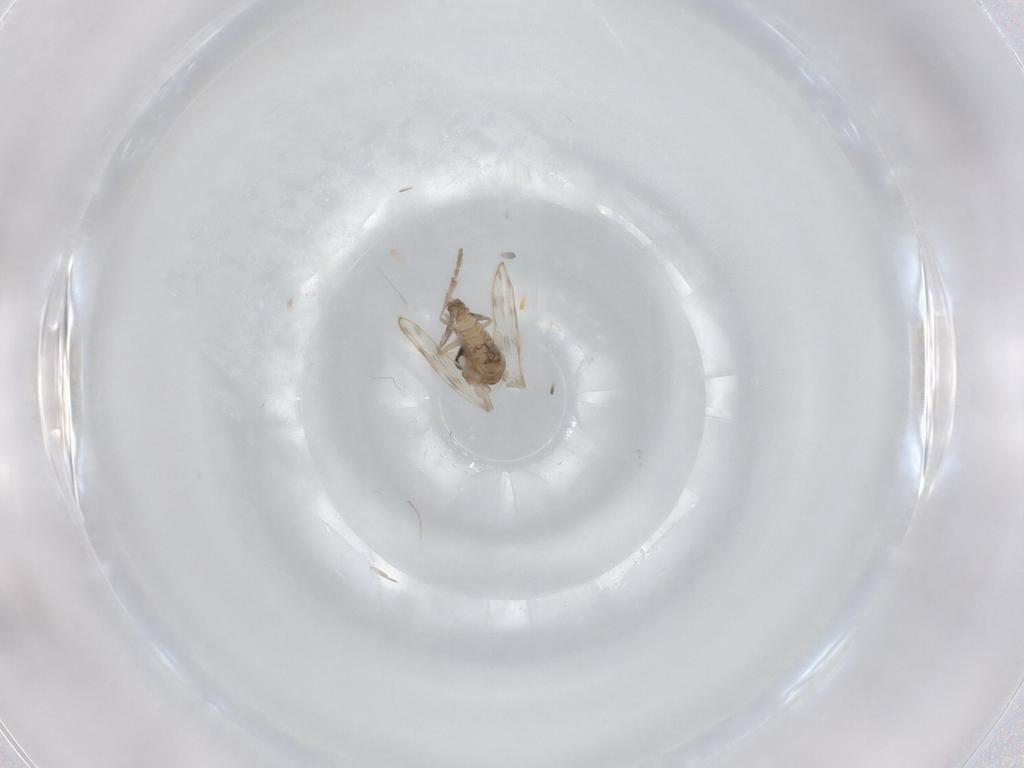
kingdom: Animalia
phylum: Arthropoda
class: Insecta
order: Diptera
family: Psychodidae
